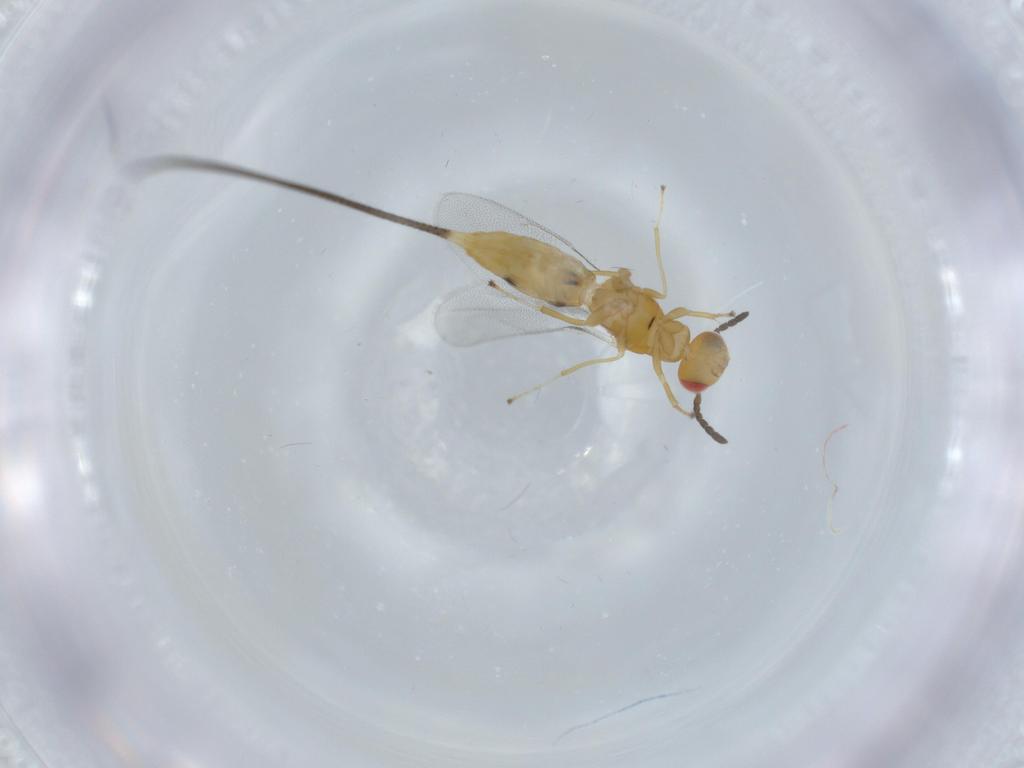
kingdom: Animalia
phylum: Arthropoda
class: Insecta
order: Hymenoptera
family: Pteromalidae
